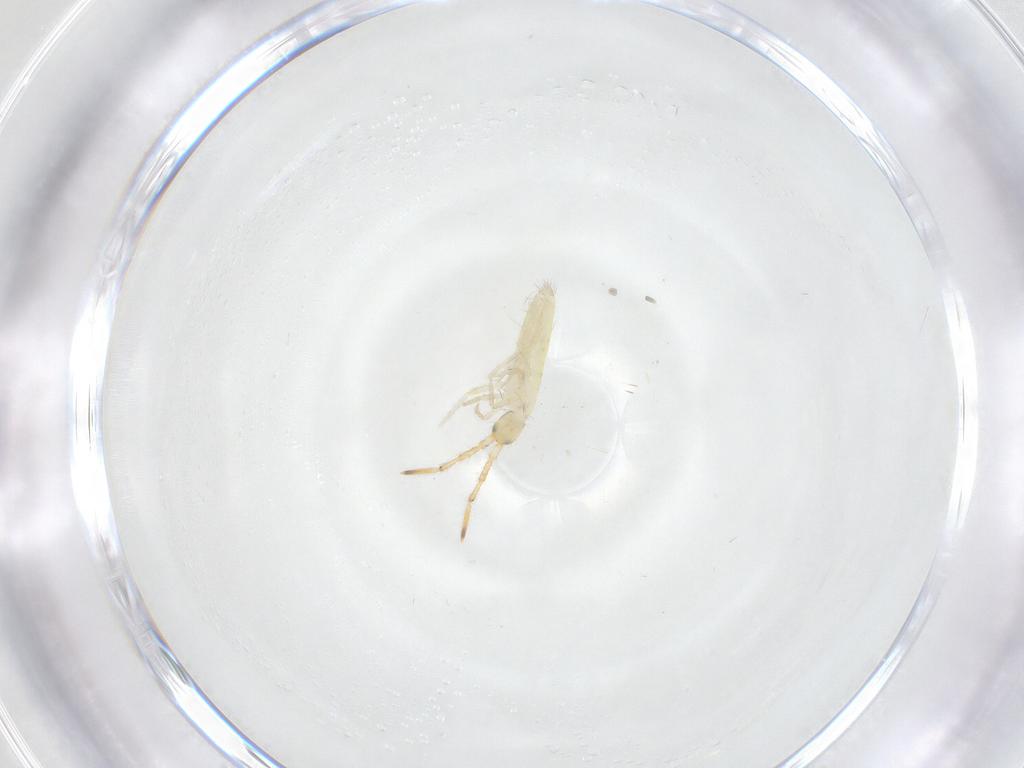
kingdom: Animalia
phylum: Arthropoda
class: Collembola
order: Entomobryomorpha
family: Entomobryidae
